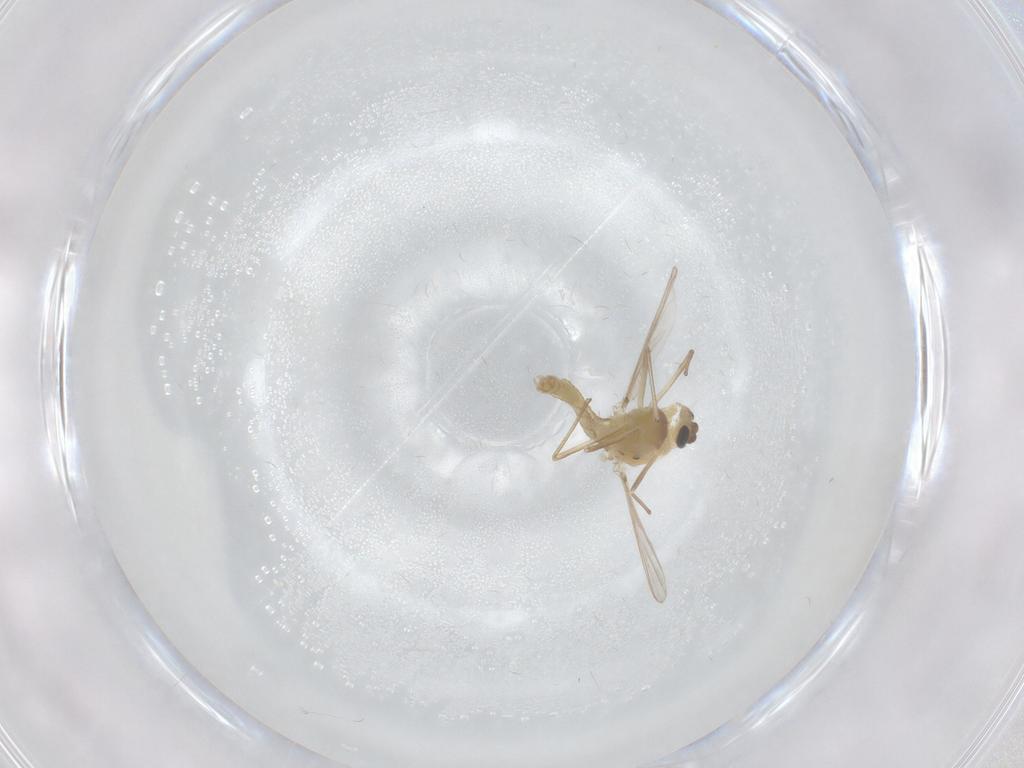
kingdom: Animalia
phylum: Arthropoda
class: Insecta
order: Diptera
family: Chironomidae
